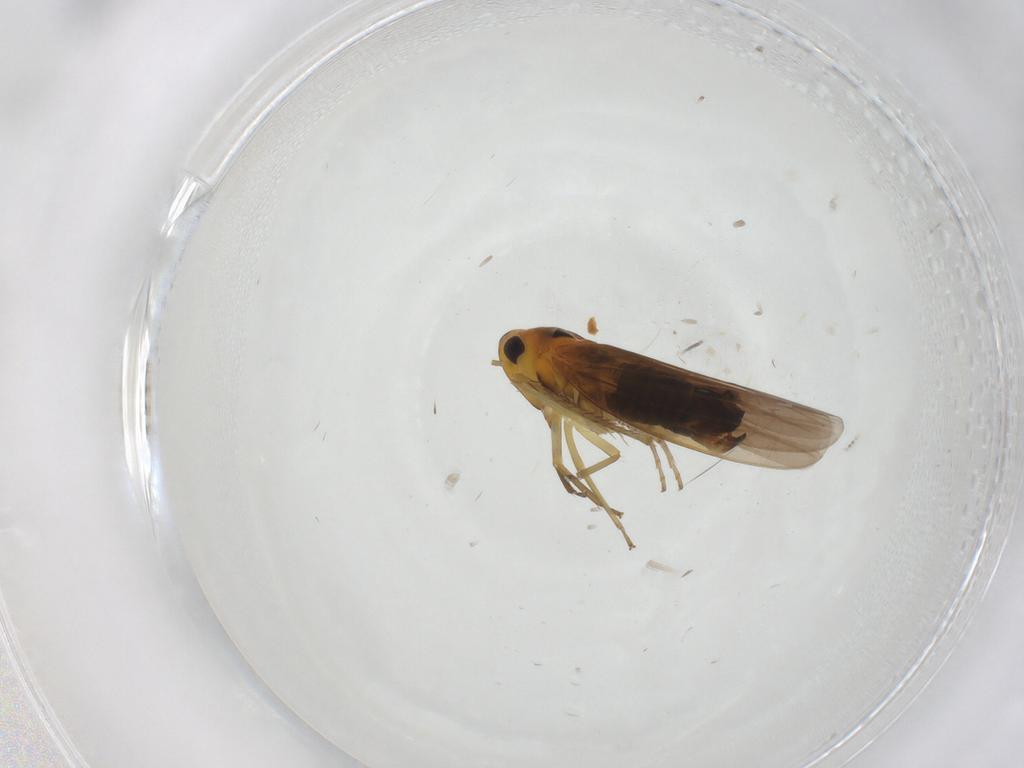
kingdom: Animalia
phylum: Arthropoda
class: Insecta
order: Hemiptera
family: Cicadellidae
